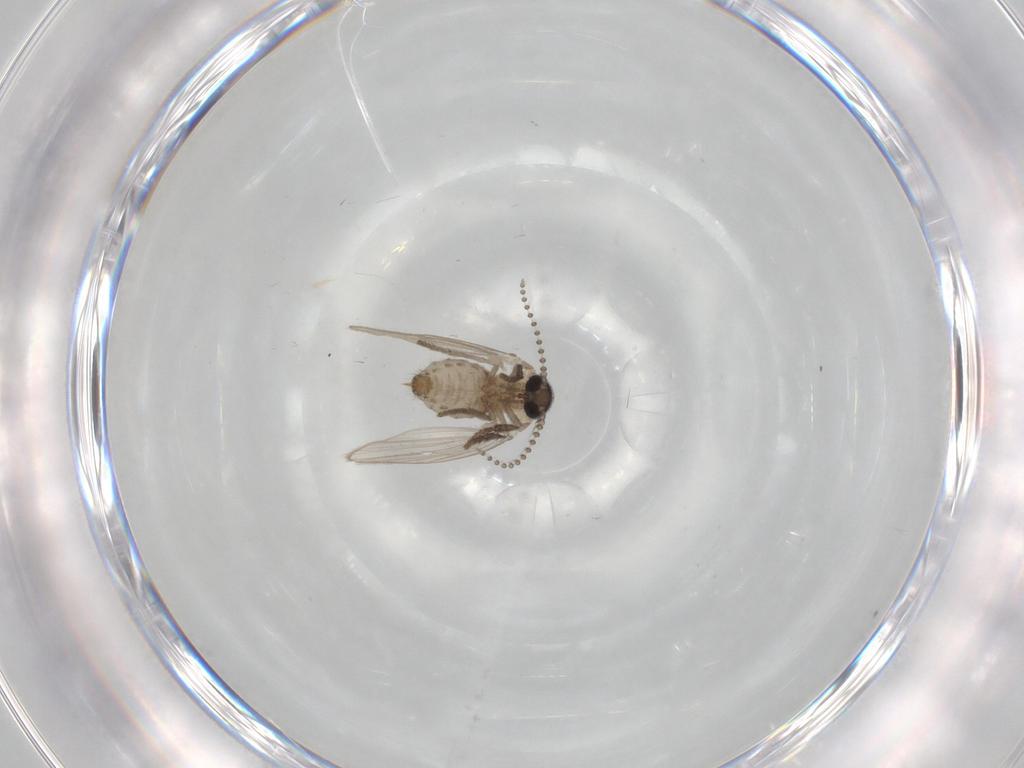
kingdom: Animalia
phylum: Arthropoda
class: Insecta
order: Diptera
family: Psychodidae
